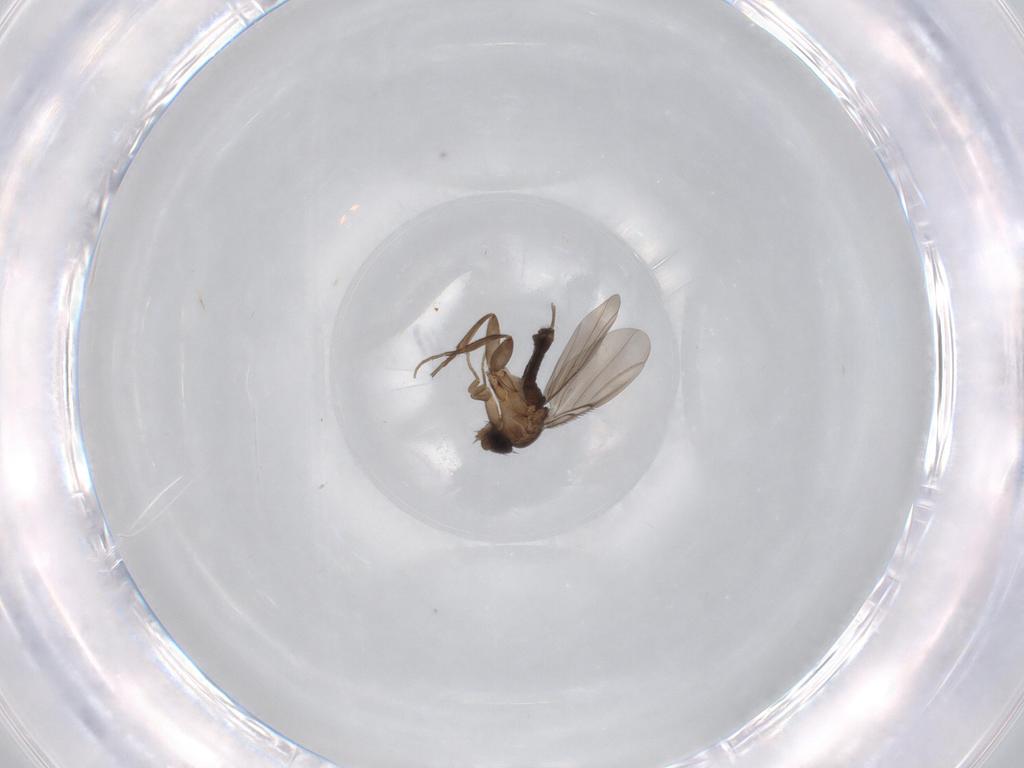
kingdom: Animalia
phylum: Arthropoda
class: Insecta
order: Diptera
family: Phoridae
